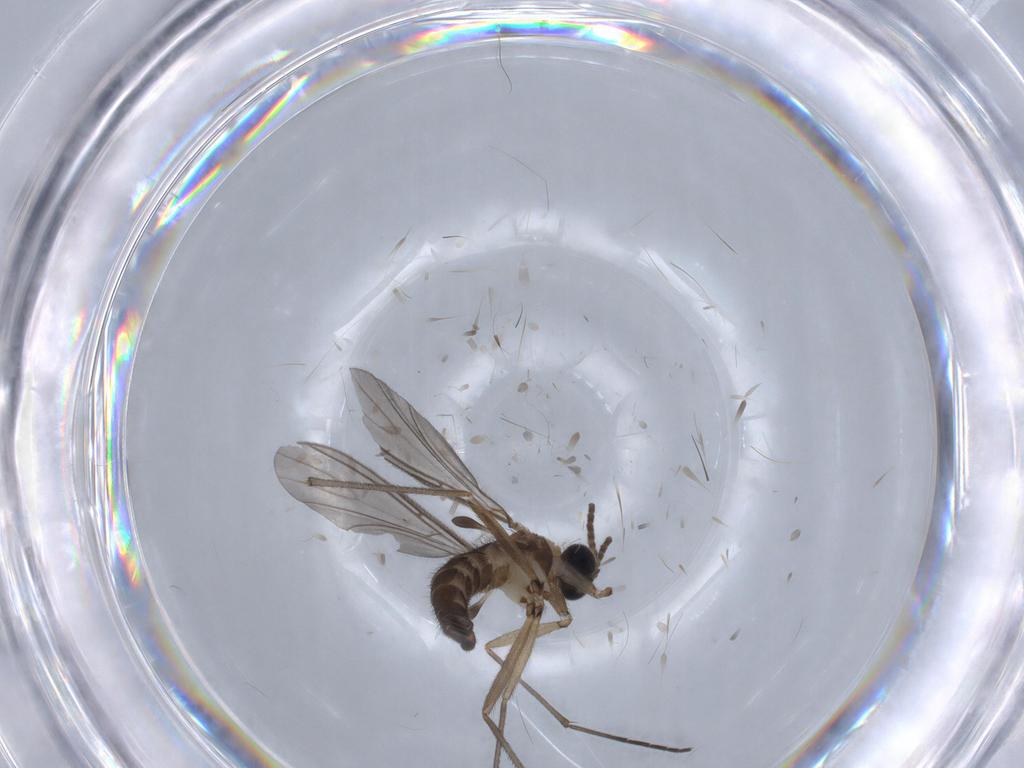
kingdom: Animalia
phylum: Arthropoda
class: Insecta
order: Diptera
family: Sciaridae
